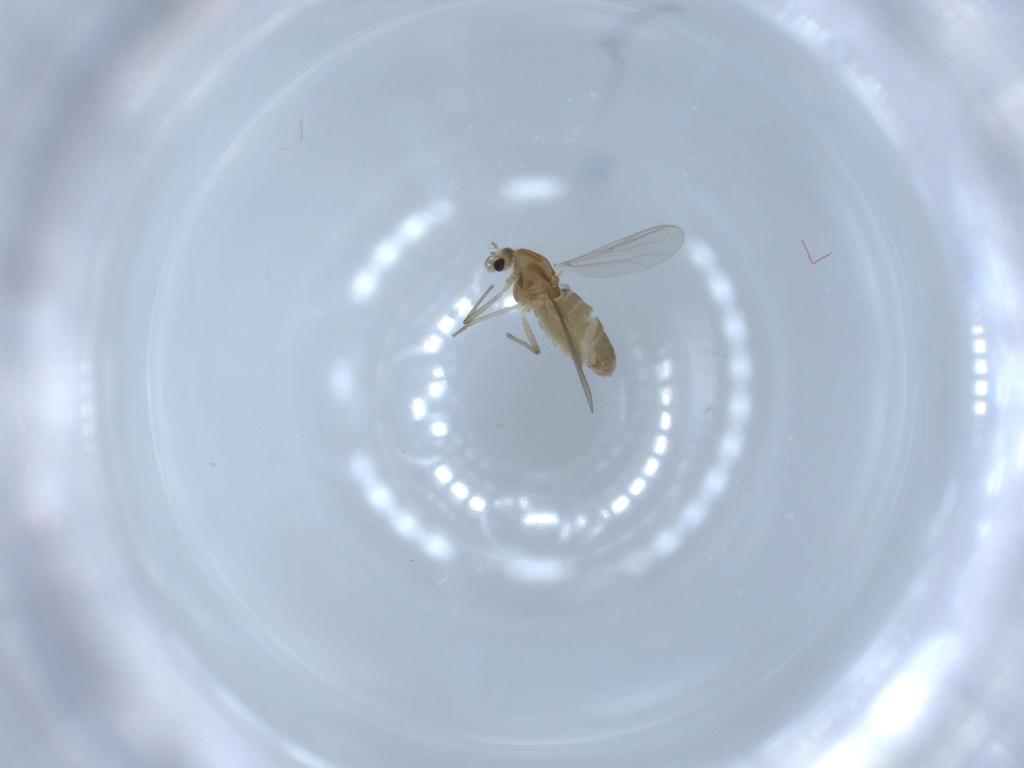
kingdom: Animalia
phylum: Arthropoda
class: Insecta
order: Diptera
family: Chironomidae
